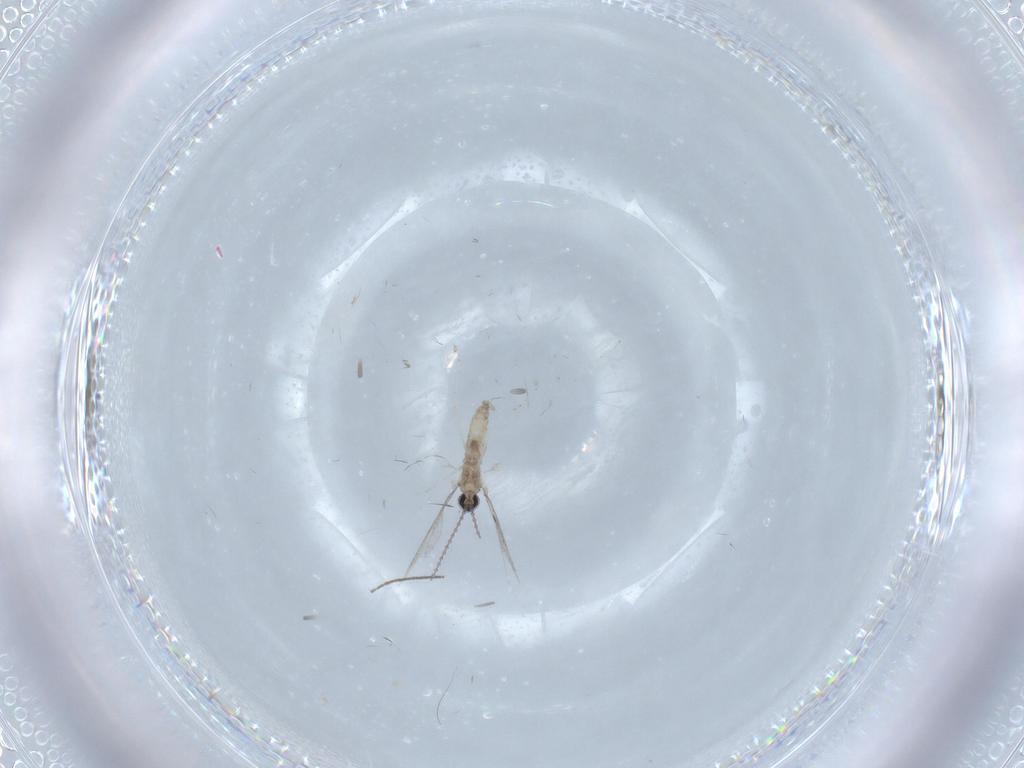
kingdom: Animalia
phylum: Arthropoda
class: Insecta
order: Diptera
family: Cecidomyiidae
